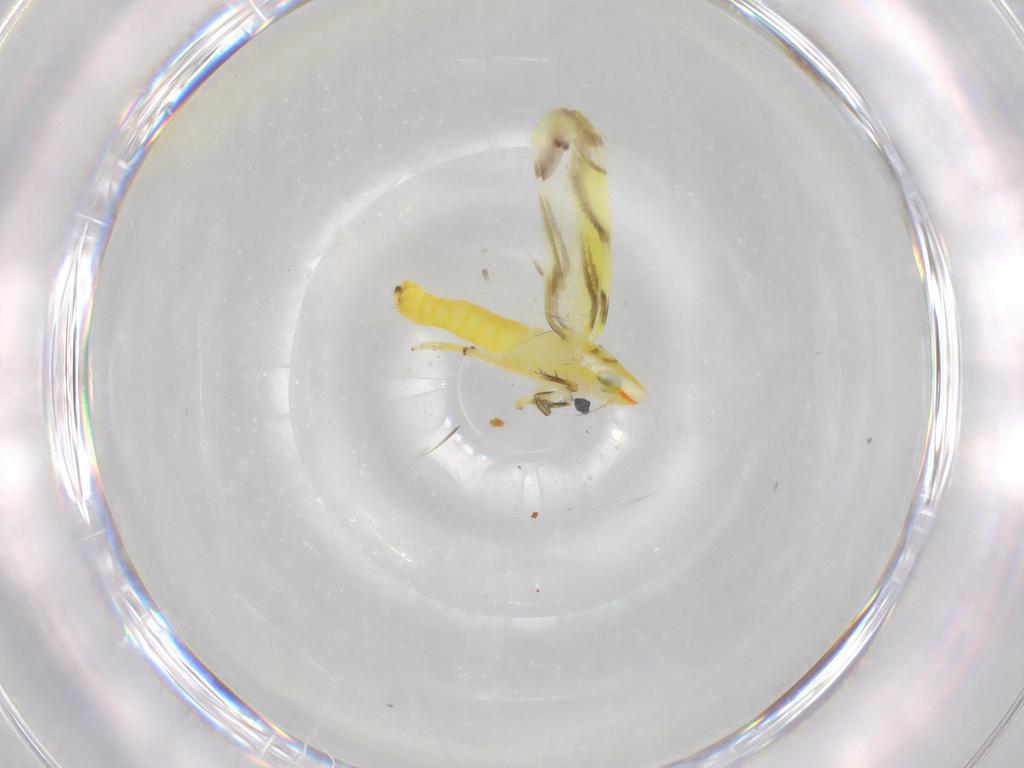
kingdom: Animalia
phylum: Arthropoda
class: Insecta
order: Hemiptera
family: Cicadellidae
